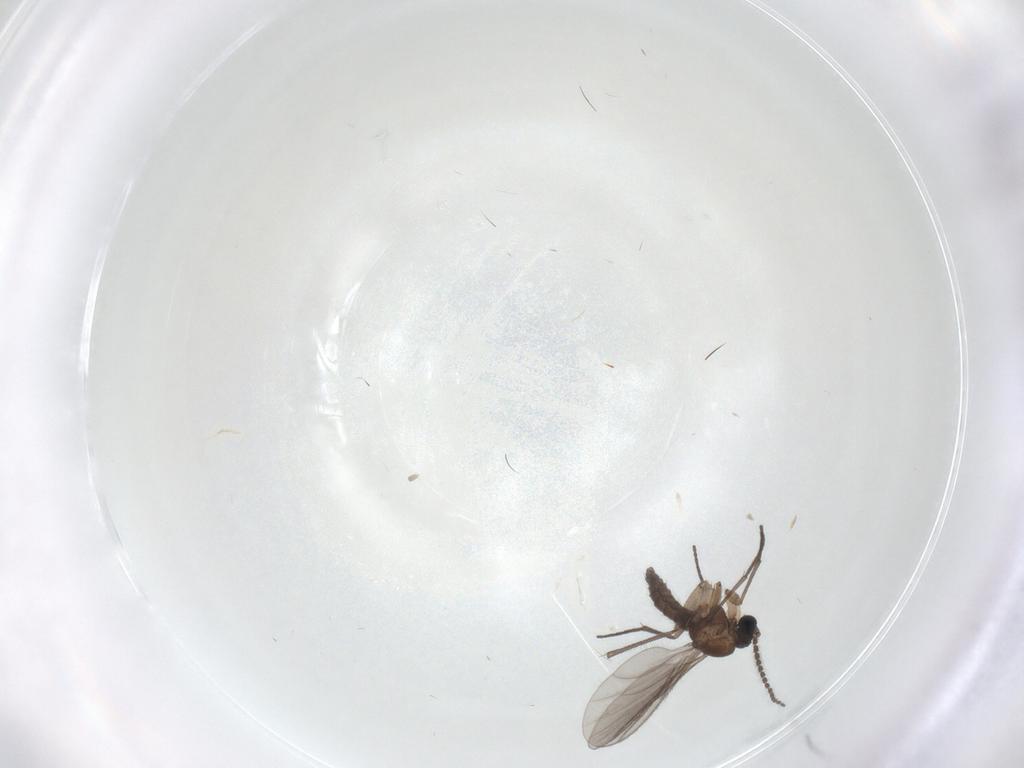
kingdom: Animalia
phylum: Arthropoda
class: Insecta
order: Diptera
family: Sciaridae
